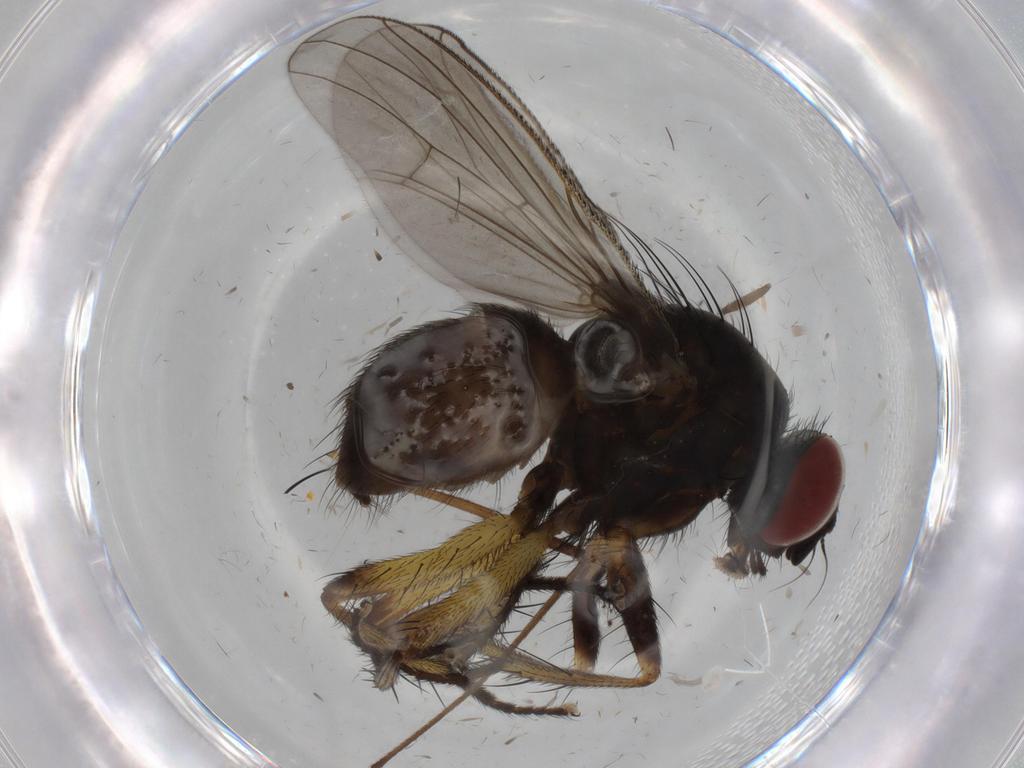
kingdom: Animalia
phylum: Arthropoda
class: Insecta
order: Diptera
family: Muscidae
